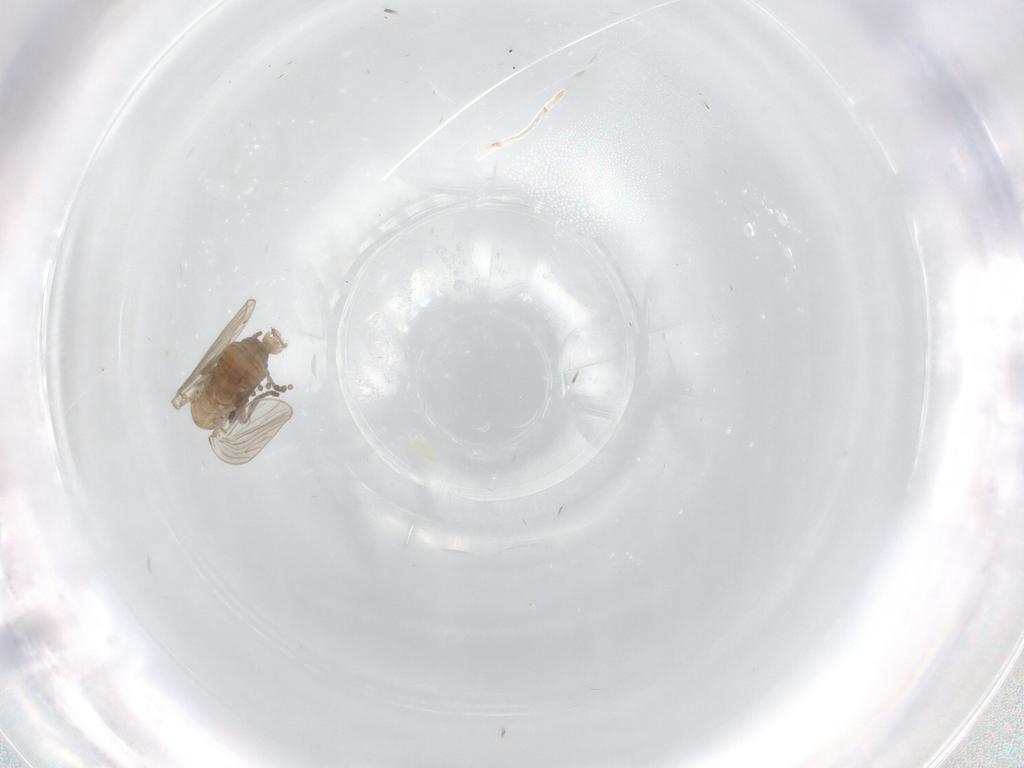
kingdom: Animalia
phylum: Arthropoda
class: Insecta
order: Diptera
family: Psychodidae
